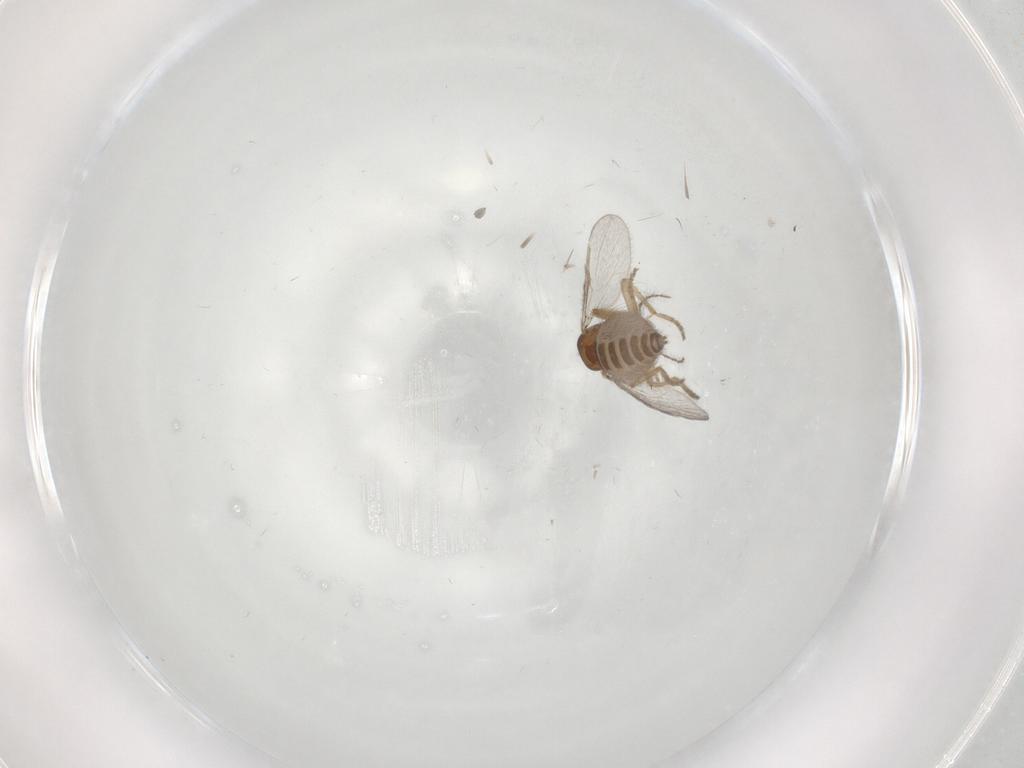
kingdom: Animalia
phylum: Arthropoda
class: Insecta
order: Diptera
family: Ceratopogonidae
